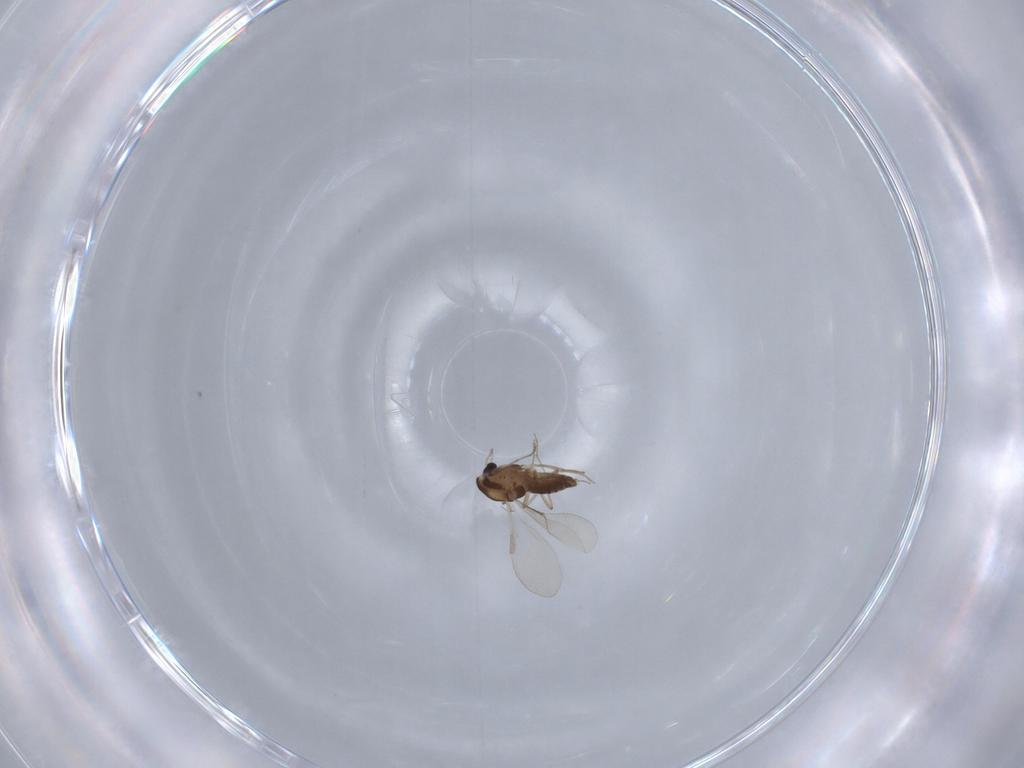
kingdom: Animalia
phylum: Arthropoda
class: Insecta
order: Diptera
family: Chironomidae
